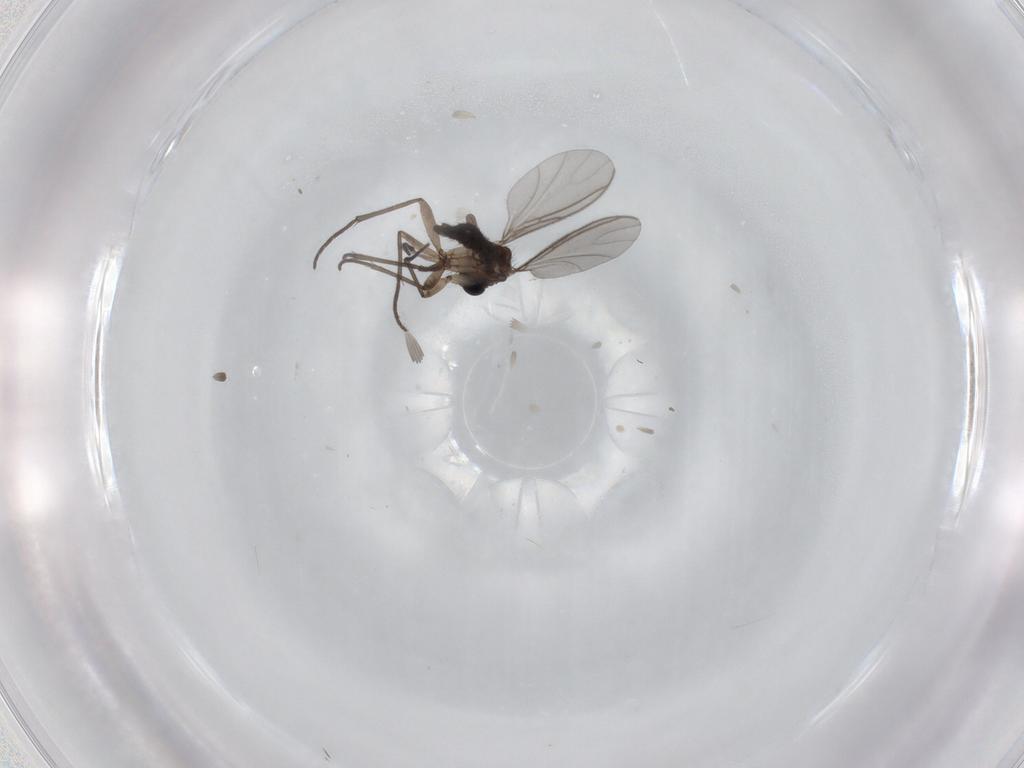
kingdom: Animalia
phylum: Arthropoda
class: Insecta
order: Diptera
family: Sciaridae
